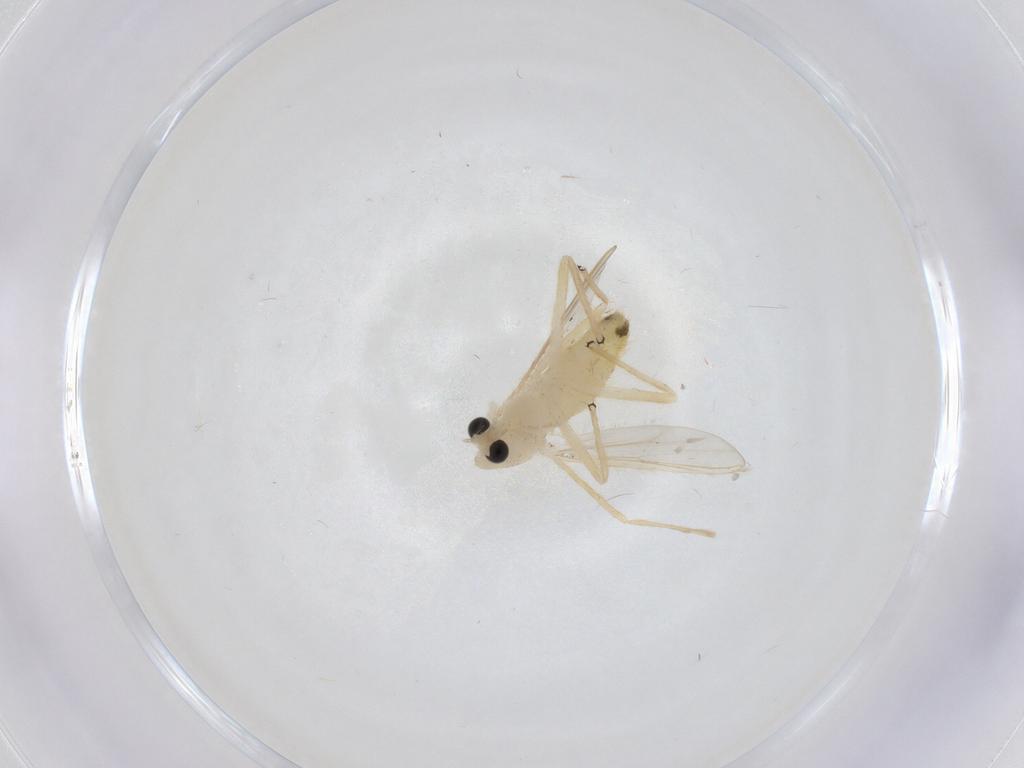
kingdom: Animalia
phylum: Arthropoda
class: Insecta
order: Diptera
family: Chironomidae
